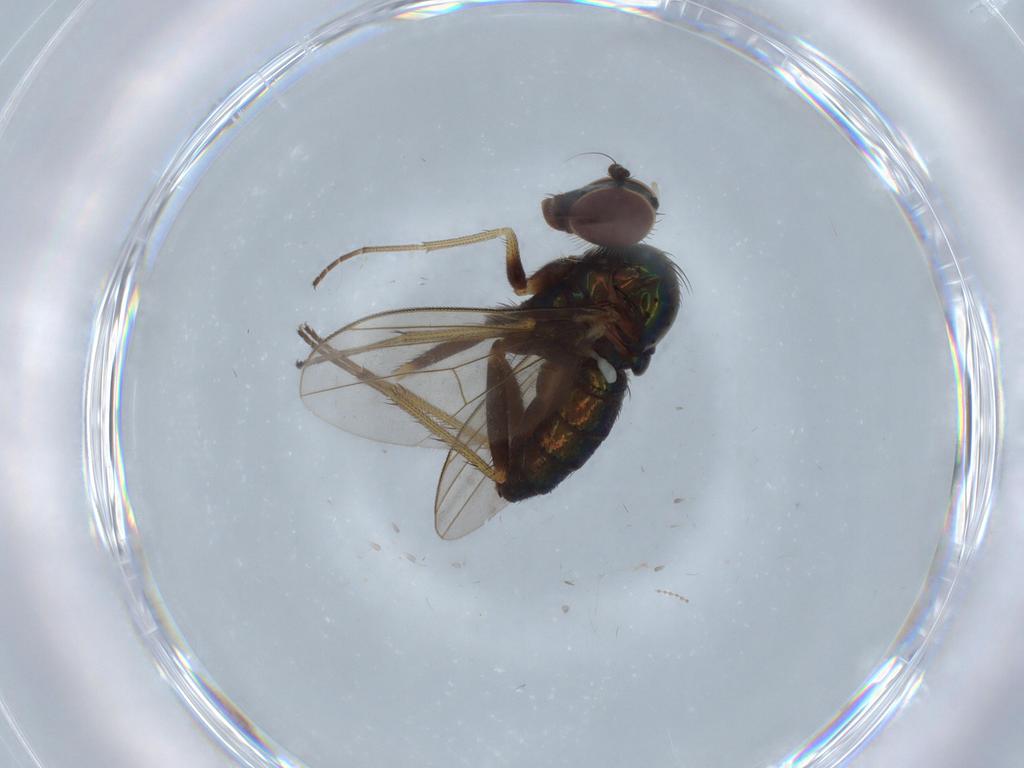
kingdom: Animalia
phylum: Arthropoda
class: Insecta
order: Diptera
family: Dolichopodidae
